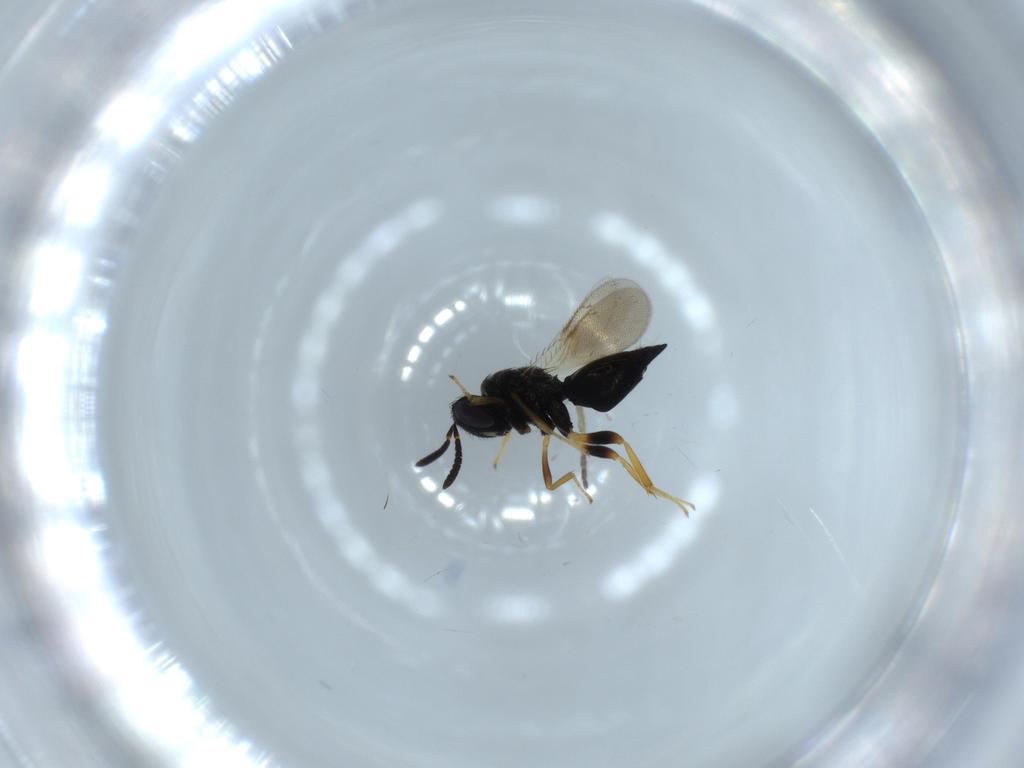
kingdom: Animalia
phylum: Arthropoda
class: Insecta
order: Hymenoptera
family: Pteromalidae
